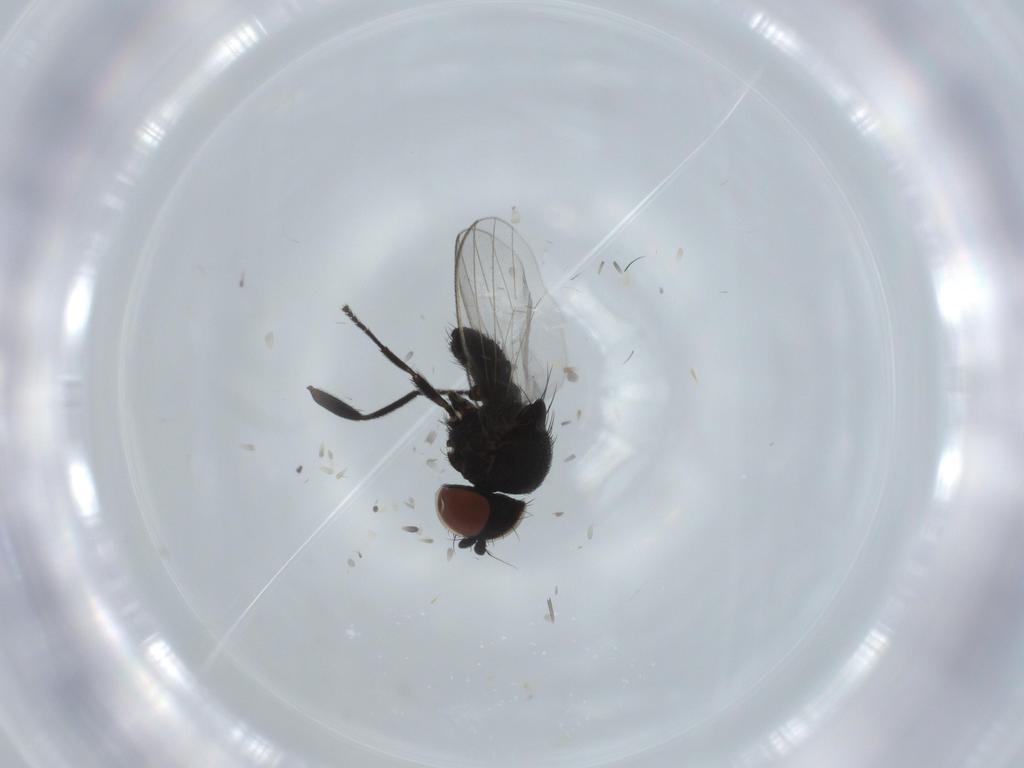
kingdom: Animalia
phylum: Arthropoda
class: Insecta
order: Diptera
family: Milichiidae
